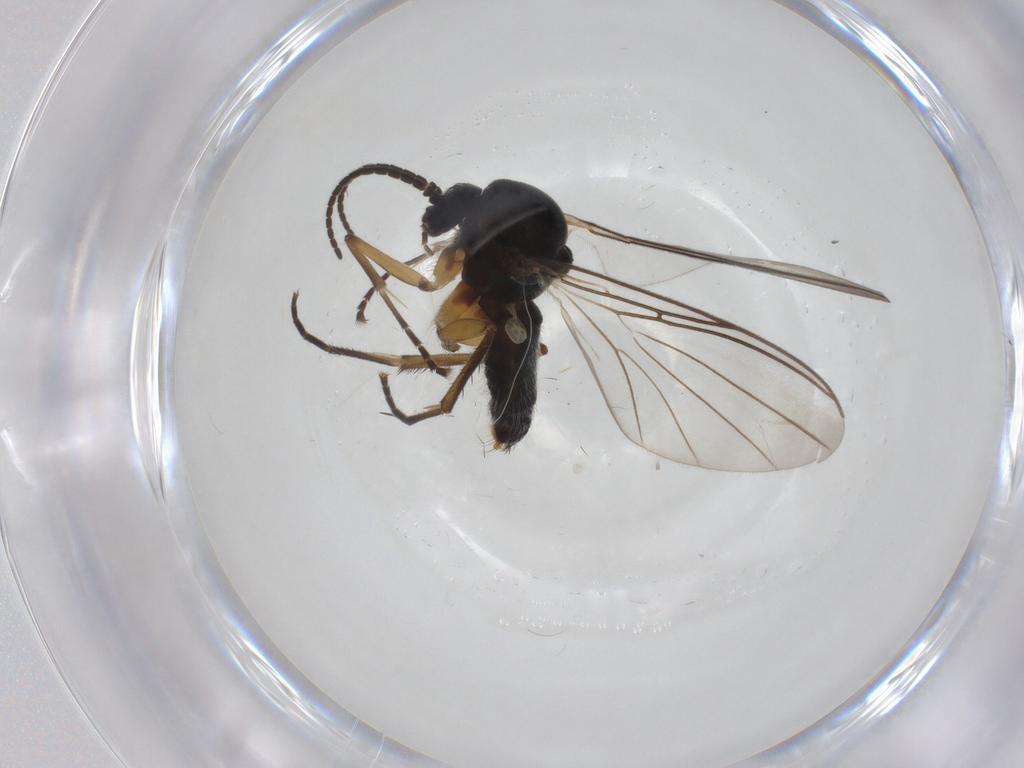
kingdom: Animalia
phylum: Arthropoda
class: Insecta
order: Diptera
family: Mycetophilidae
